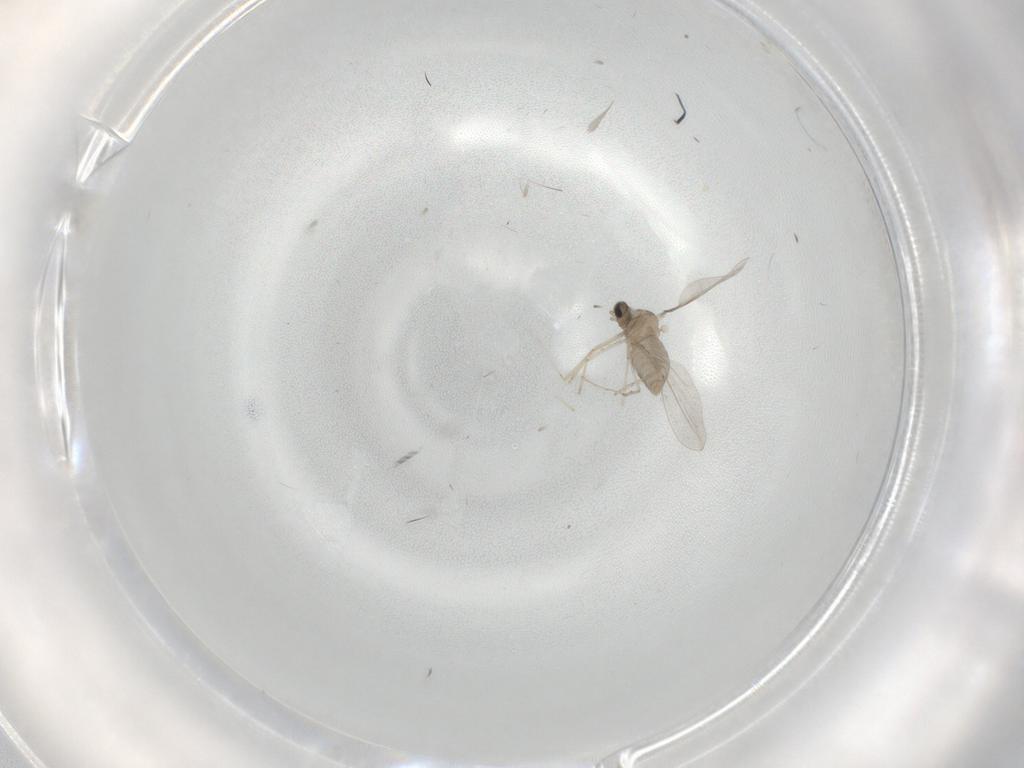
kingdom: Animalia
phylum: Arthropoda
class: Insecta
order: Diptera
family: Cecidomyiidae
